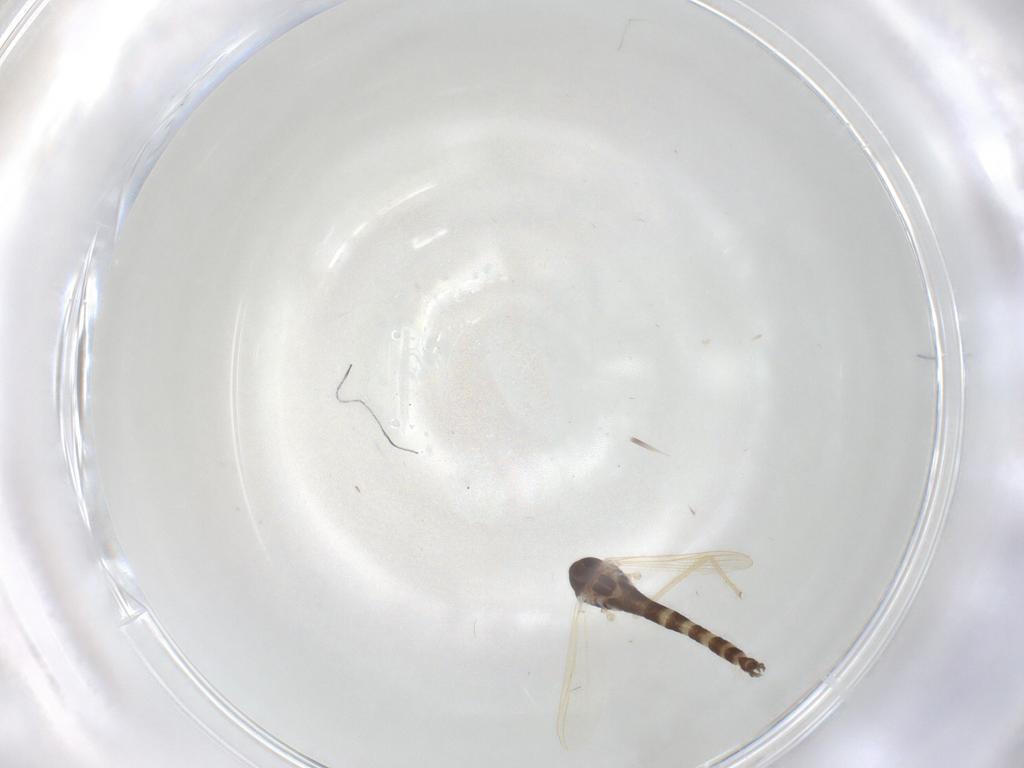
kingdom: Animalia
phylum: Arthropoda
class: Insecta
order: Diptera
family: Chironomidae
